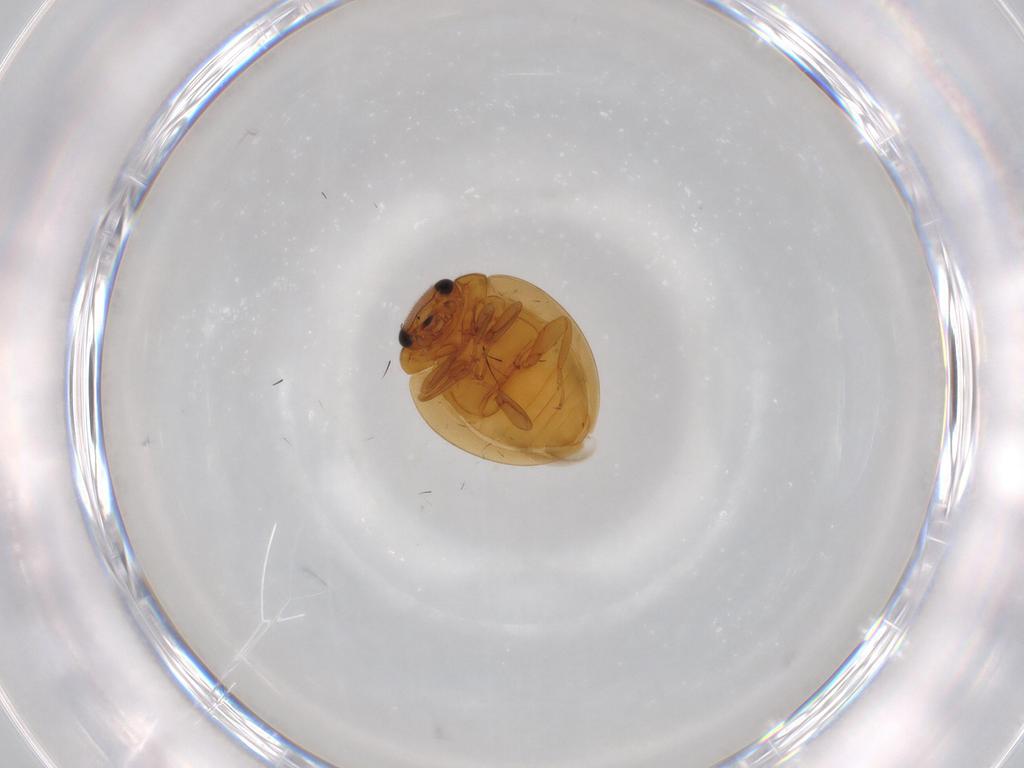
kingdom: Animalia
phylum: Arthropoda
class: Insecta
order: Coleoptera
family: Coccinellidae
